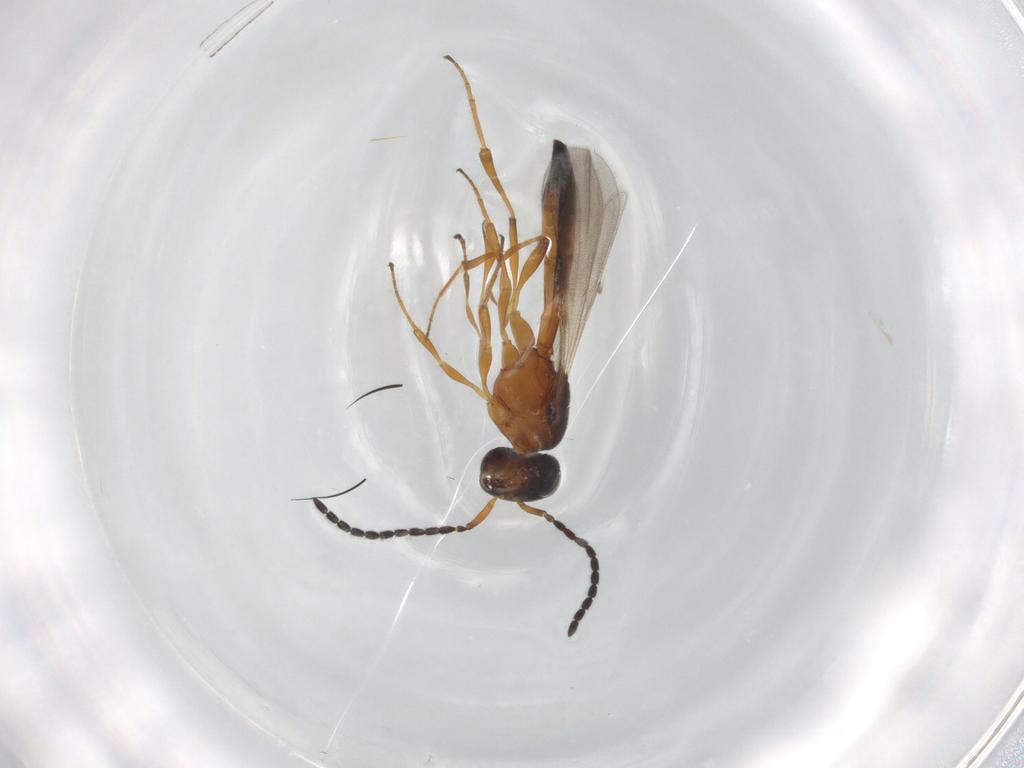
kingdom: Animalia
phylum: Arthropoda
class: Insecta
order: Hymenoptera
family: Scelionidae
